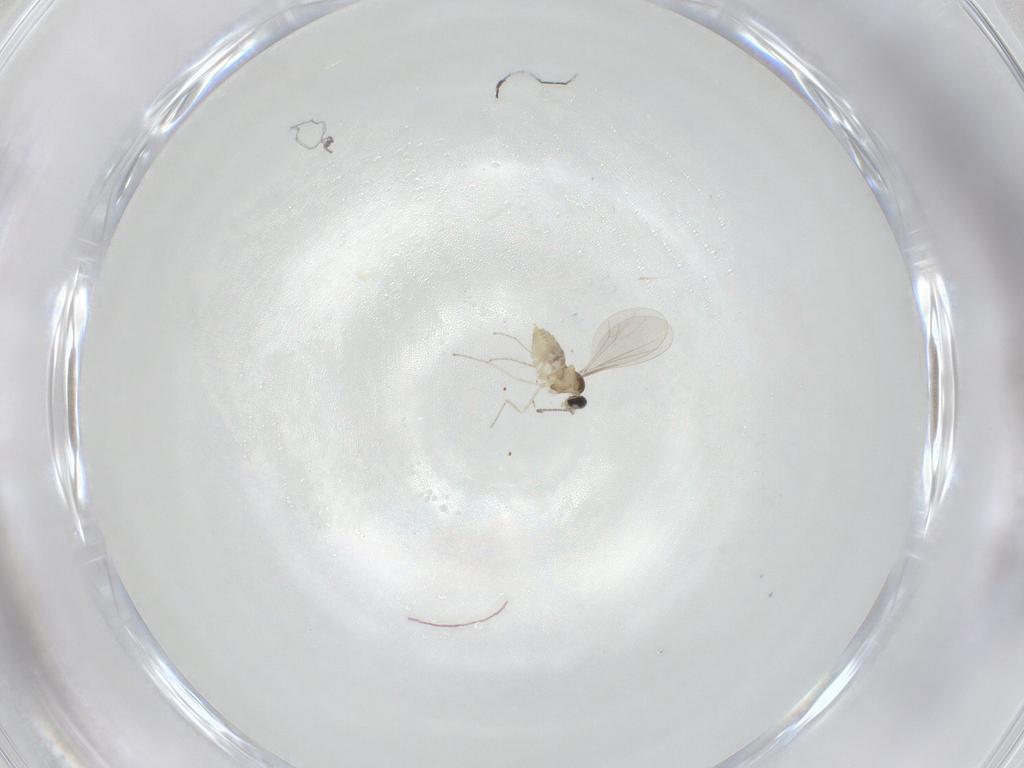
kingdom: Animalia
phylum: Arthropoda
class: Insecta
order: Diptera
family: Cecidomyiidae
